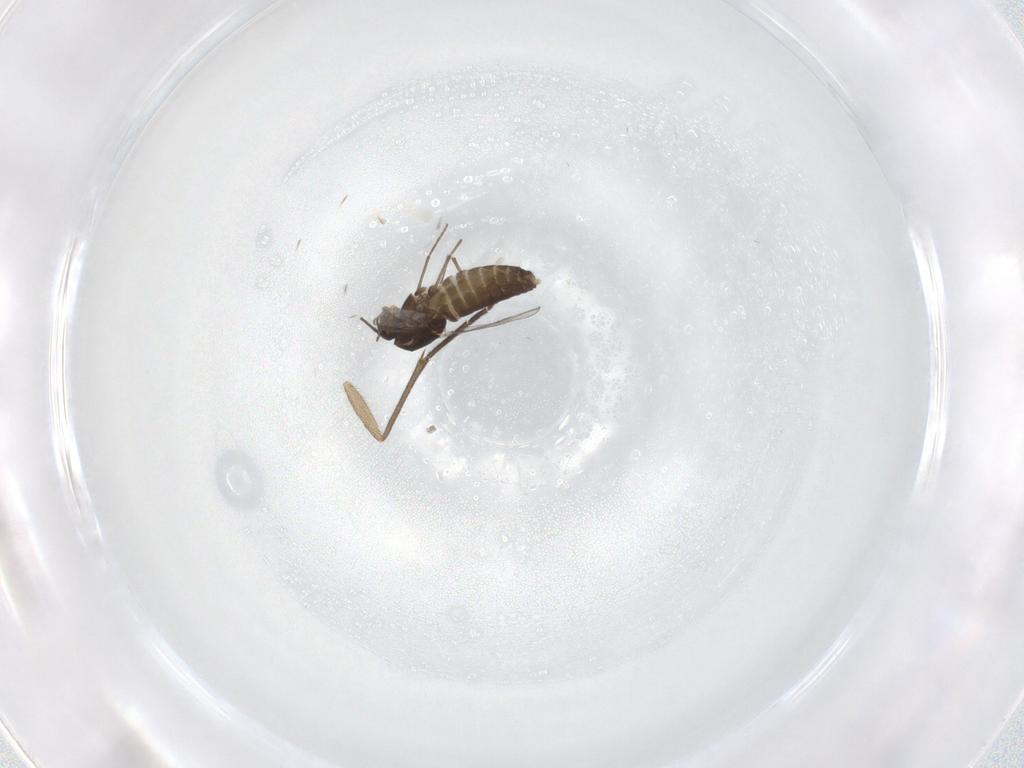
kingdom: Animalia
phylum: Arthropoda
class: Insecta
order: Diptera
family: Chironomidae
